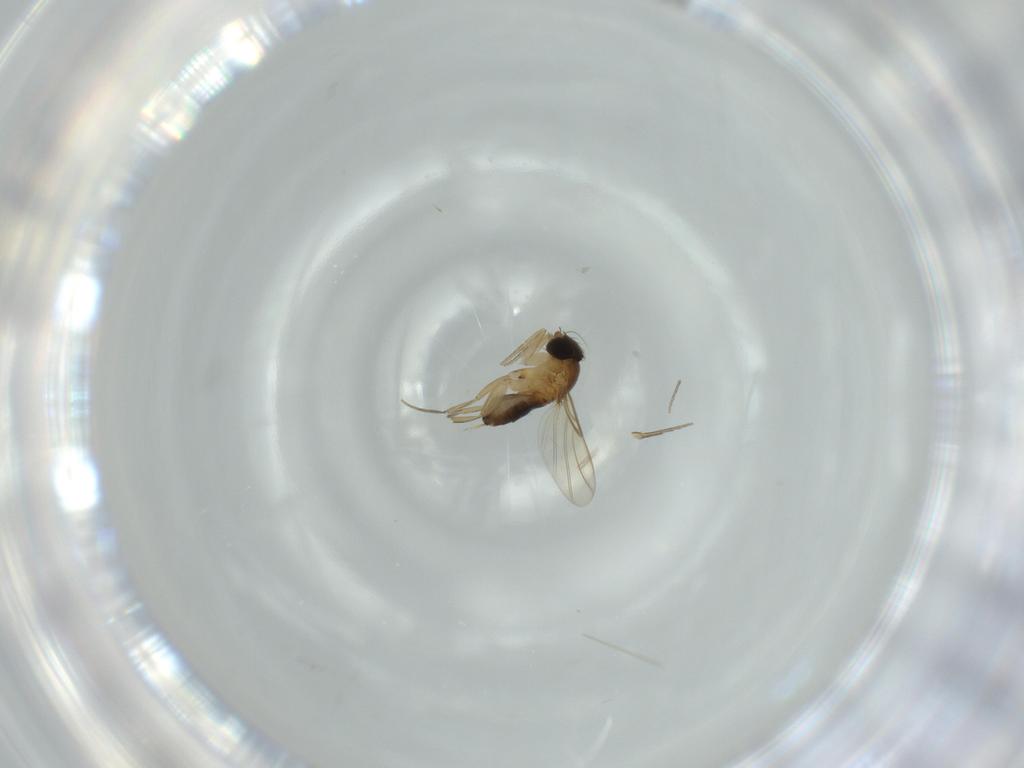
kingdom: Animalia
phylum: Arthropoda
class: Insecta
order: Diptera
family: Phoridae
